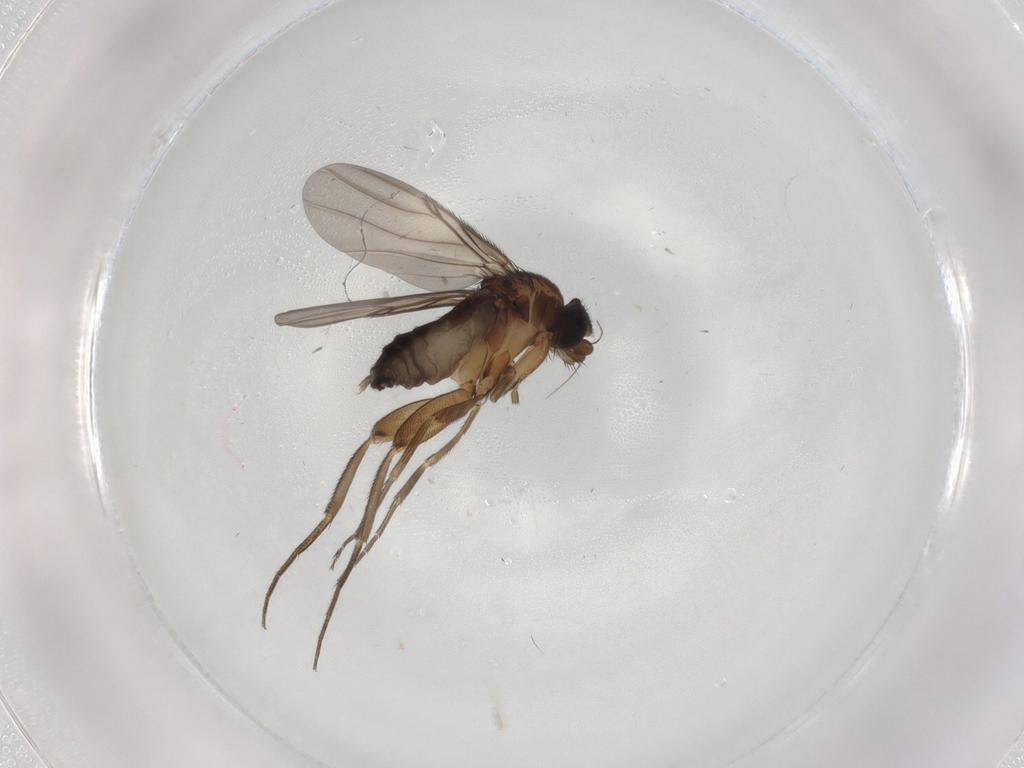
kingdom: Animalia
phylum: Arthropoda
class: Insecta
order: Diptera
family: Phoridae
